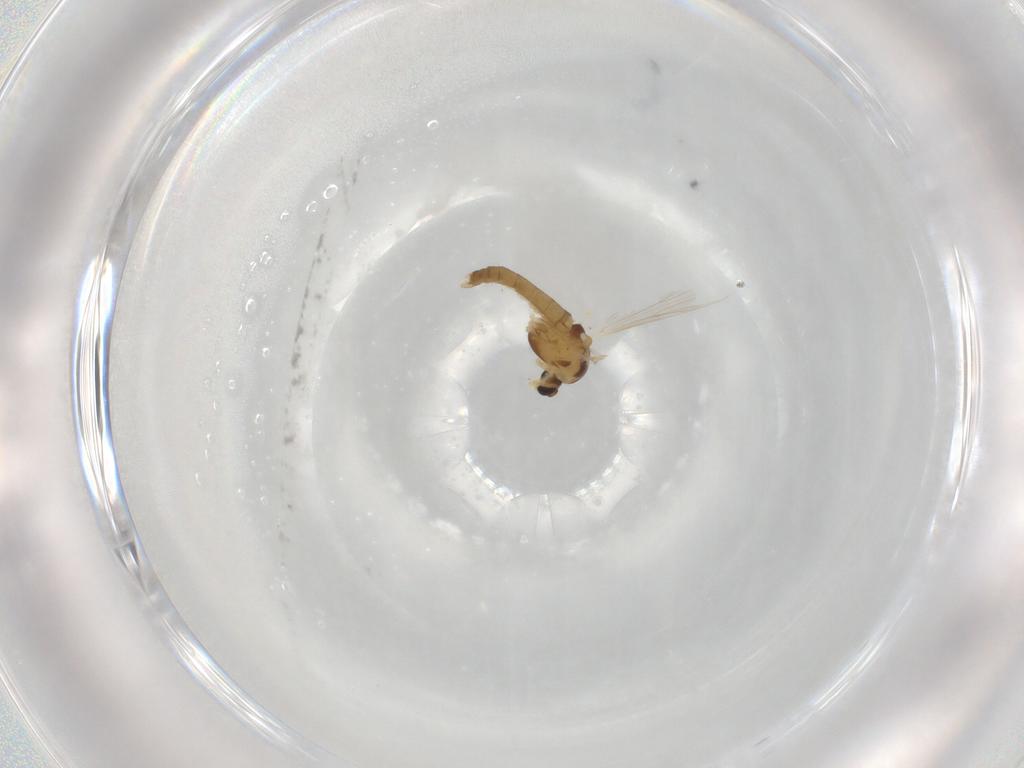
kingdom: Animalia
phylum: Arthropoda
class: Insecta
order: Diptera
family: Chironomidae
